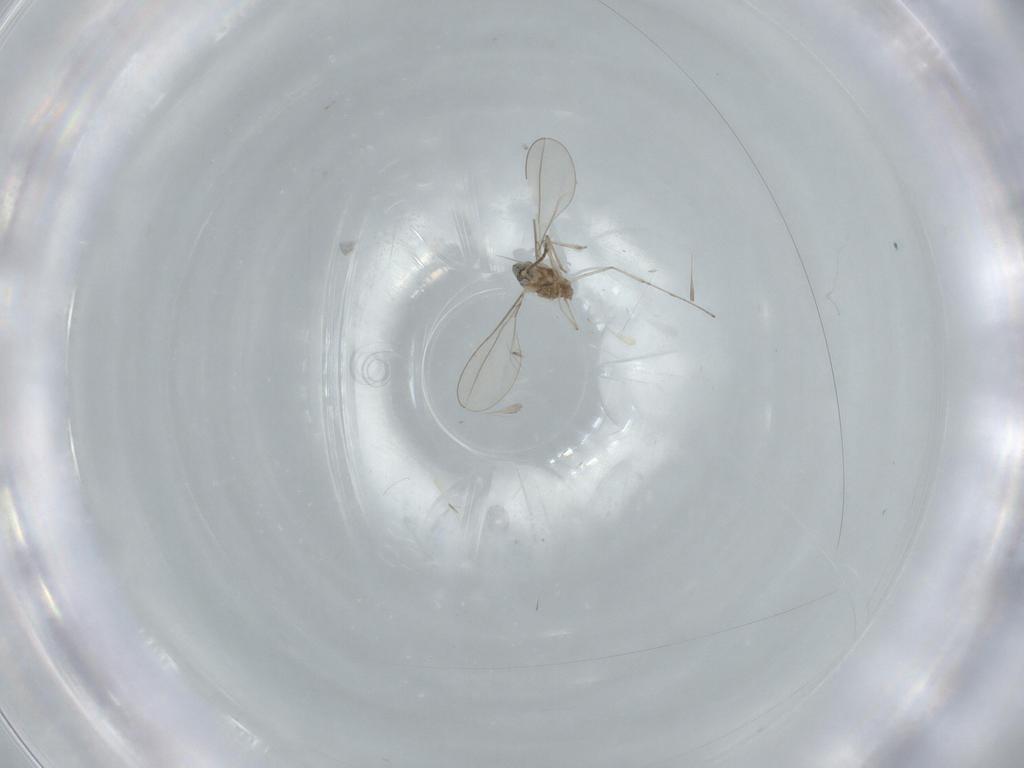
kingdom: Animalia
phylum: Arthropoda
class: Insecta
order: Diptera
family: Cecidomyiidae
